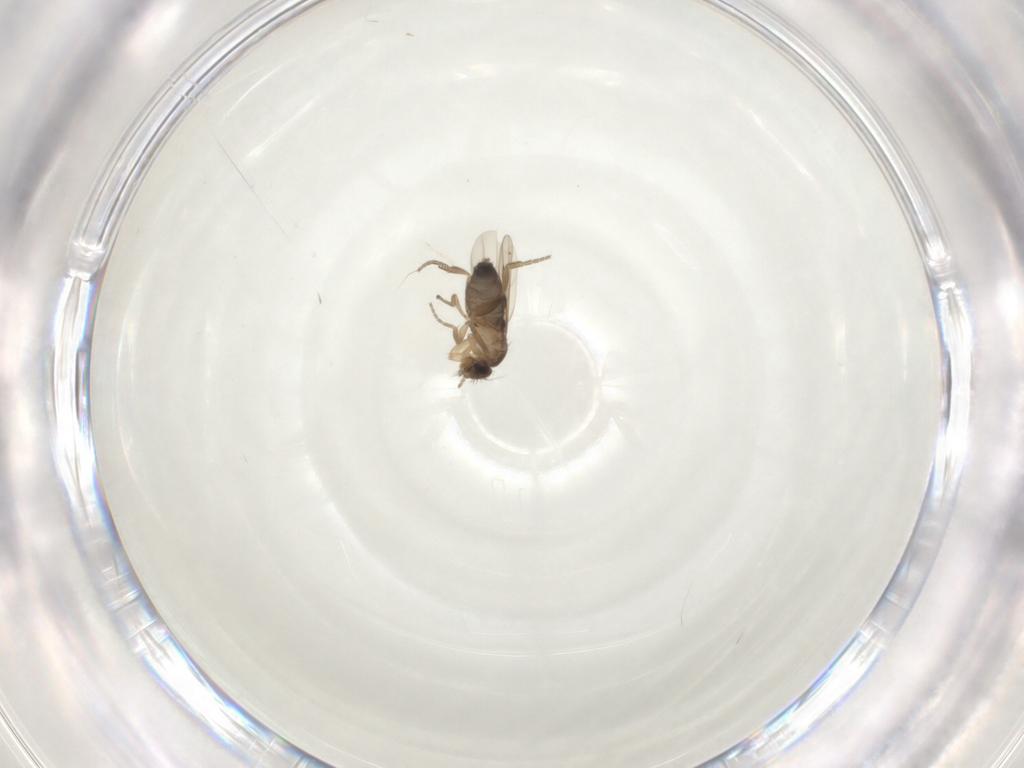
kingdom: Animalia
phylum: Arthropoda
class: Insecta
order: Diptera
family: Phoridae
